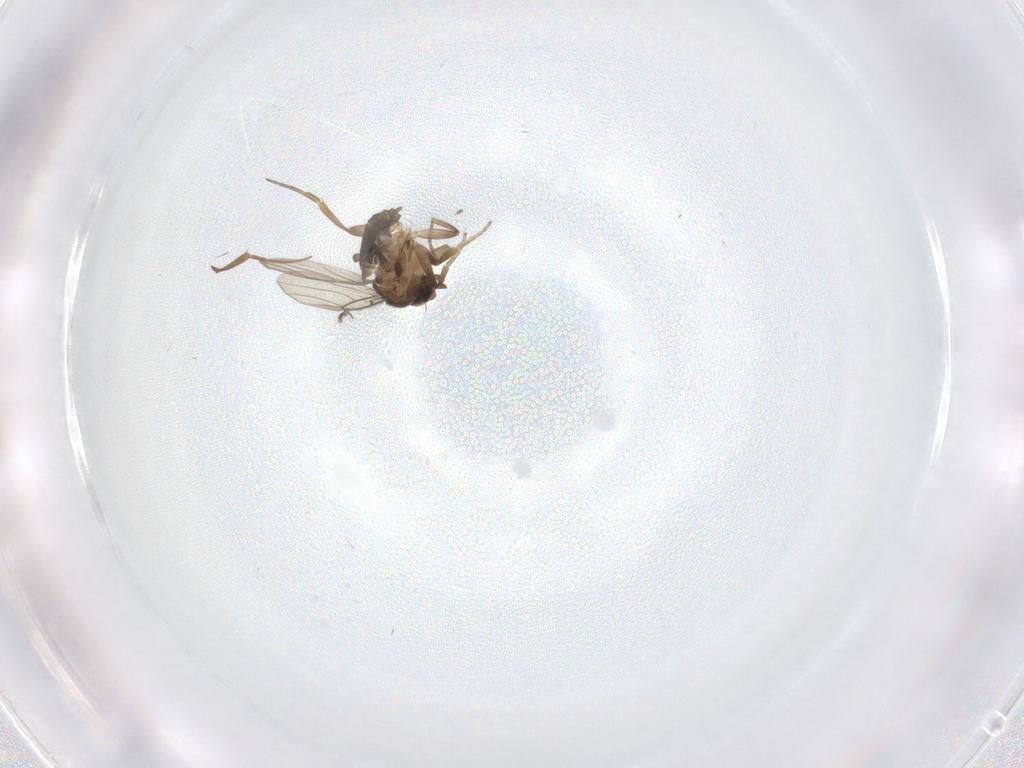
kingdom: Animalia
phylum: Arthropoda
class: Insecta
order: Diptera
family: Phoridae
